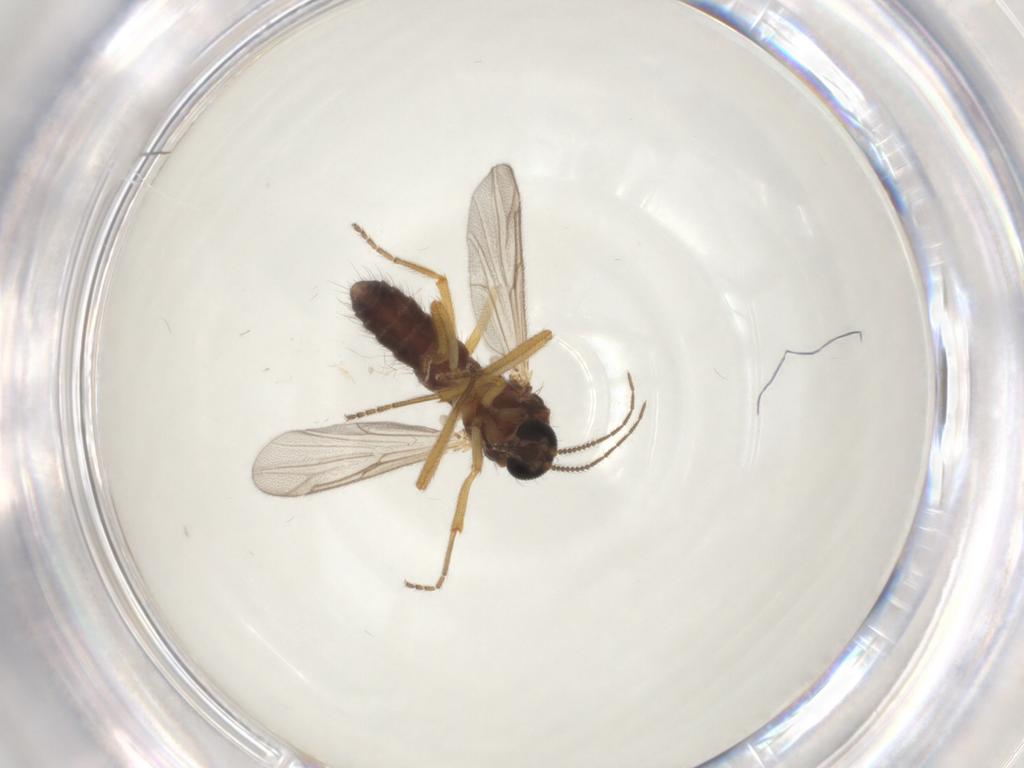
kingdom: Animalia
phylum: Arthropoda
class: Insecta
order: Diptera
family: Ceratopogonidae
